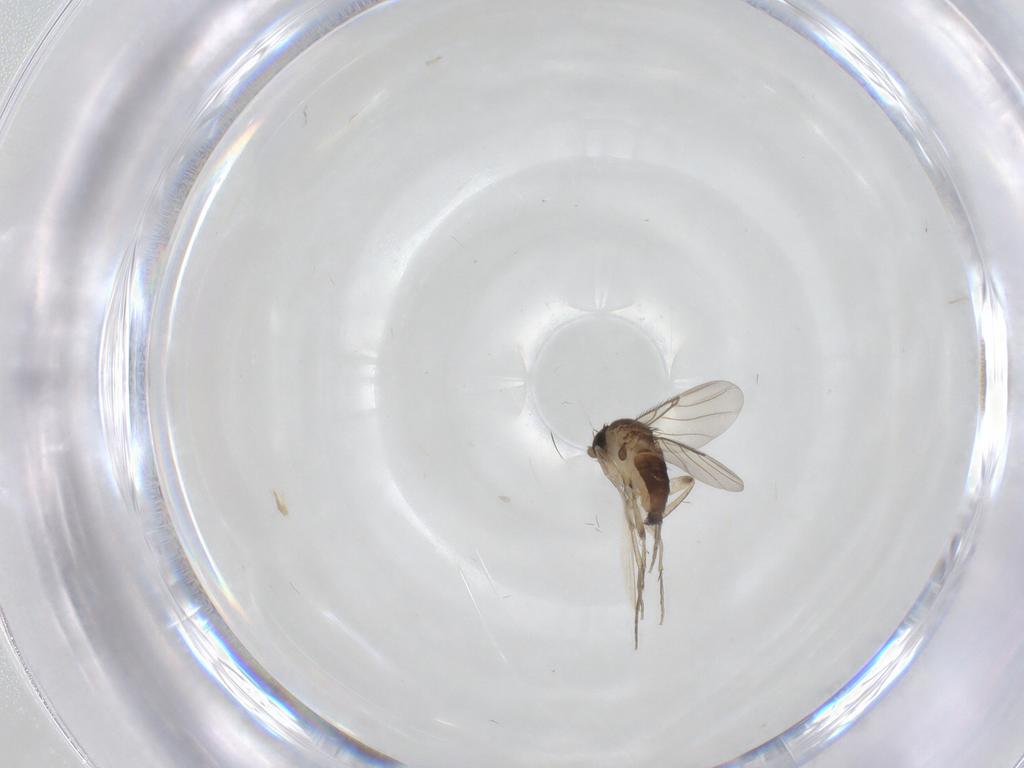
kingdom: Animalia
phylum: Arthropoda
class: Insecta
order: Diptera
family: Phoridae
